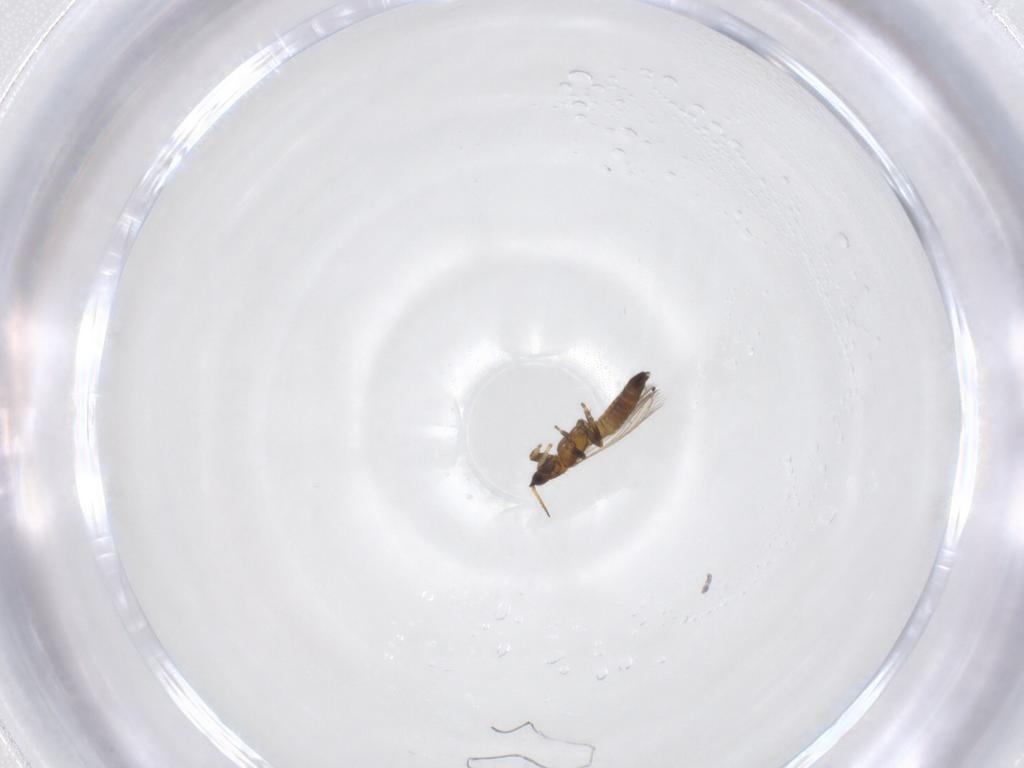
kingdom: Animalia
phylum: Arthropoda
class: Insecta
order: Thysanoptera
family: Melanthripidae
